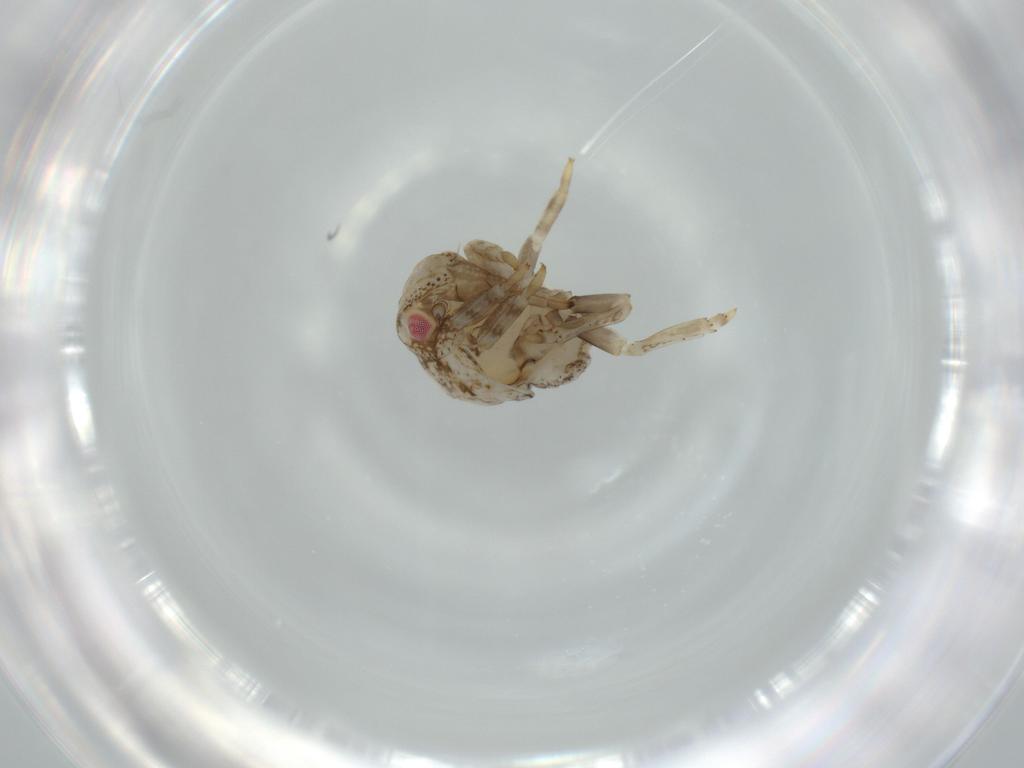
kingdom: Animalia
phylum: Arthropoda
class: Insecta
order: Hemiptera
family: Acanaloniidae
